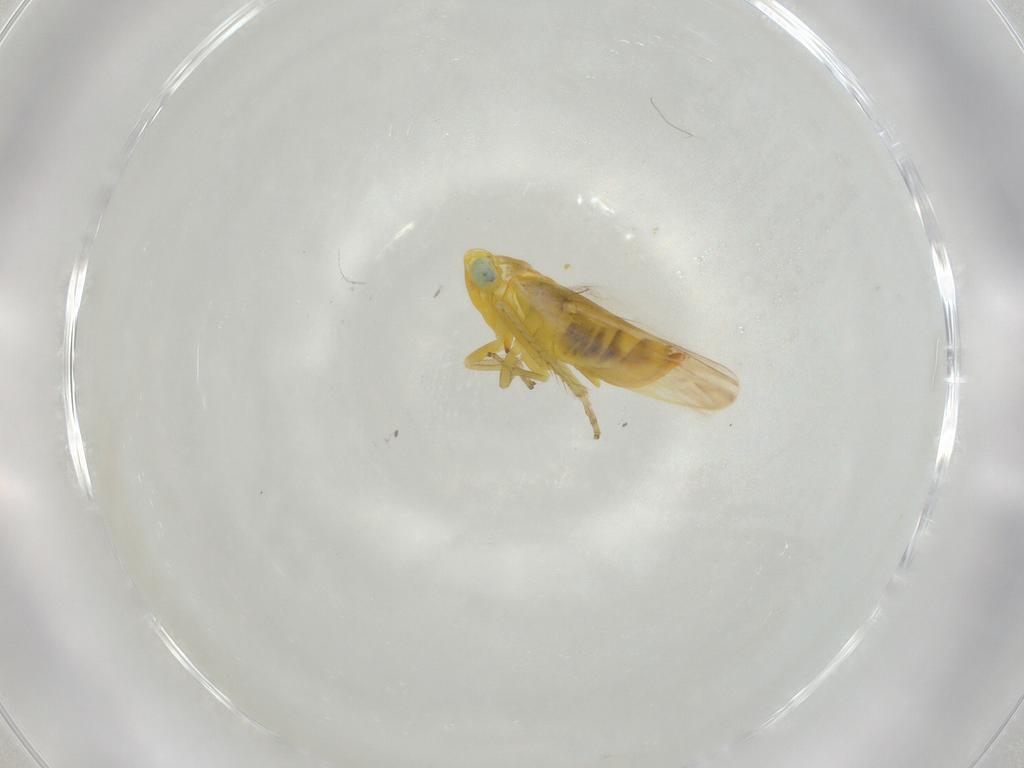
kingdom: Animalia
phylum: Arthropoda
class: Insecta
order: Hemiptera
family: Cicadellidae
